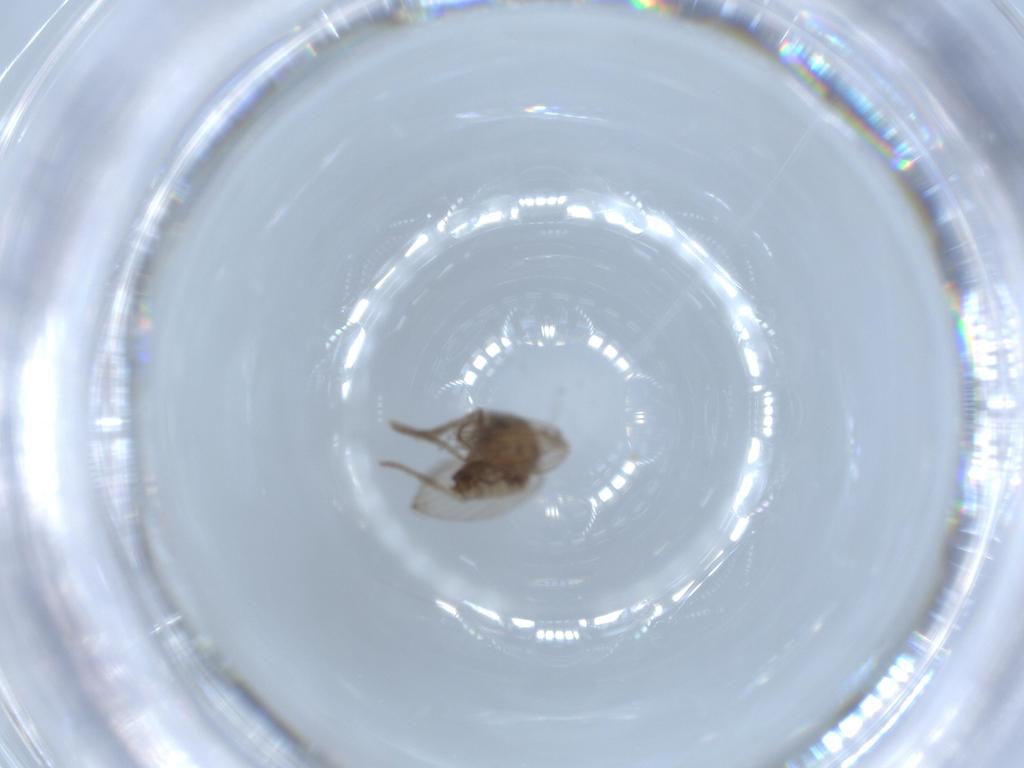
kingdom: Animalia
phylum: Arthropoda
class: Insecta
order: Diptera
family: Psychodidae
